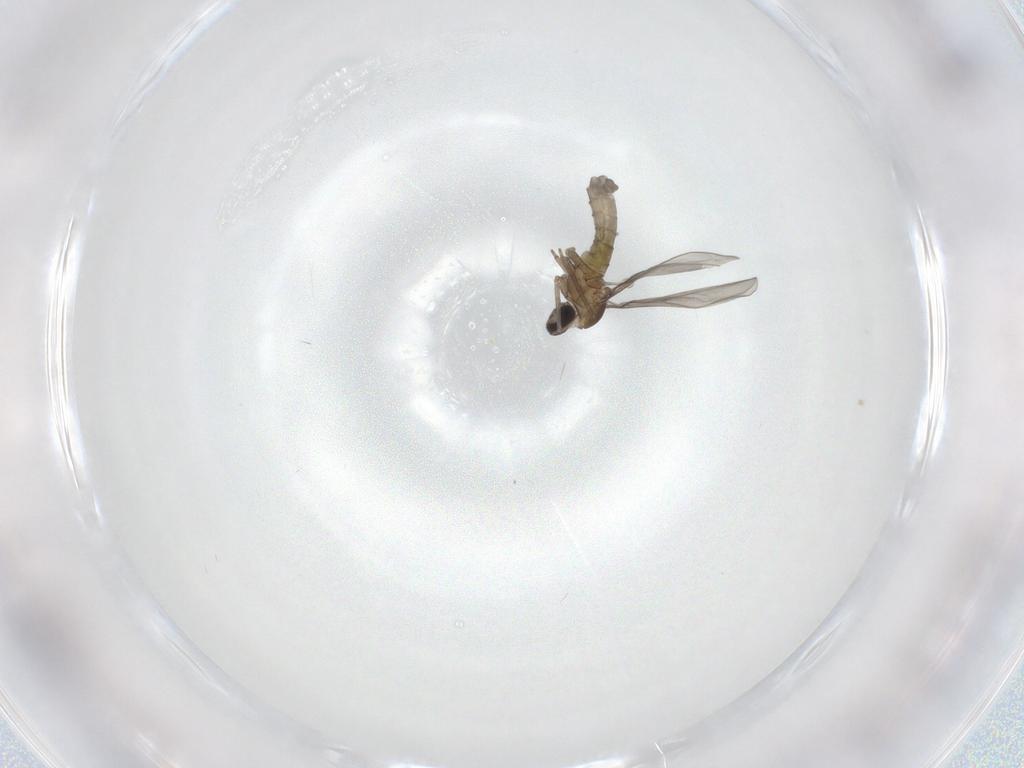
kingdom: Animalia
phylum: Arthropoda
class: Insecta
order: Diptera
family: Sciaridae
